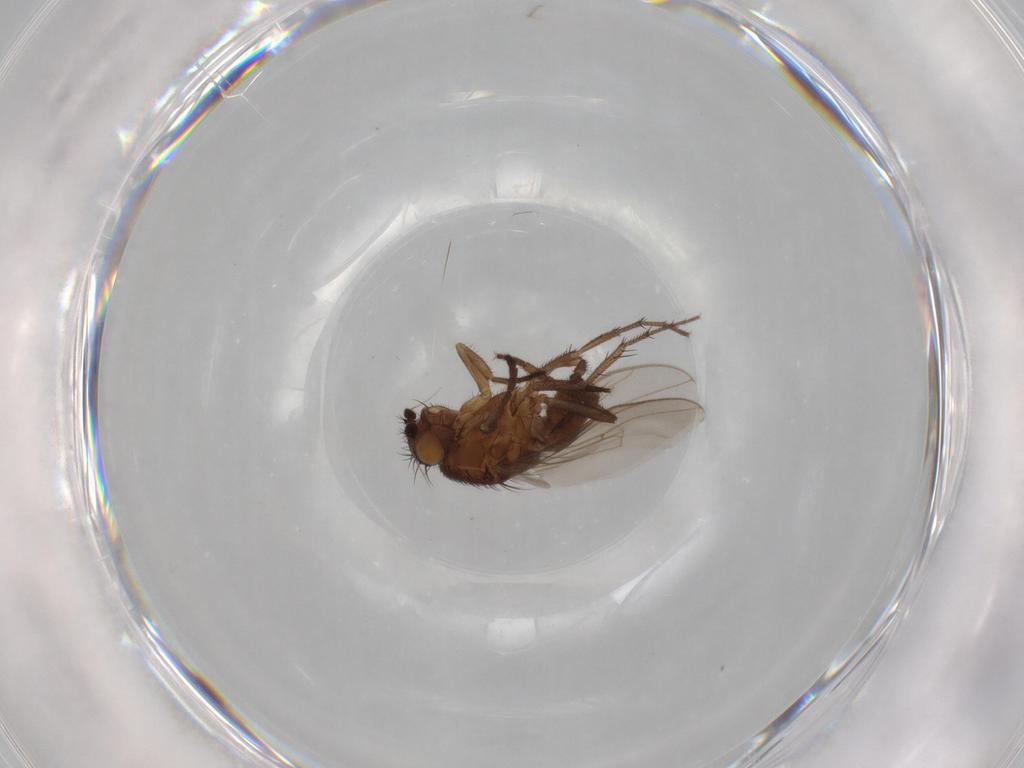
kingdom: Animalia
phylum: Arthropoda
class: Insecta
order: Diptera
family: Sphaeroceridae
